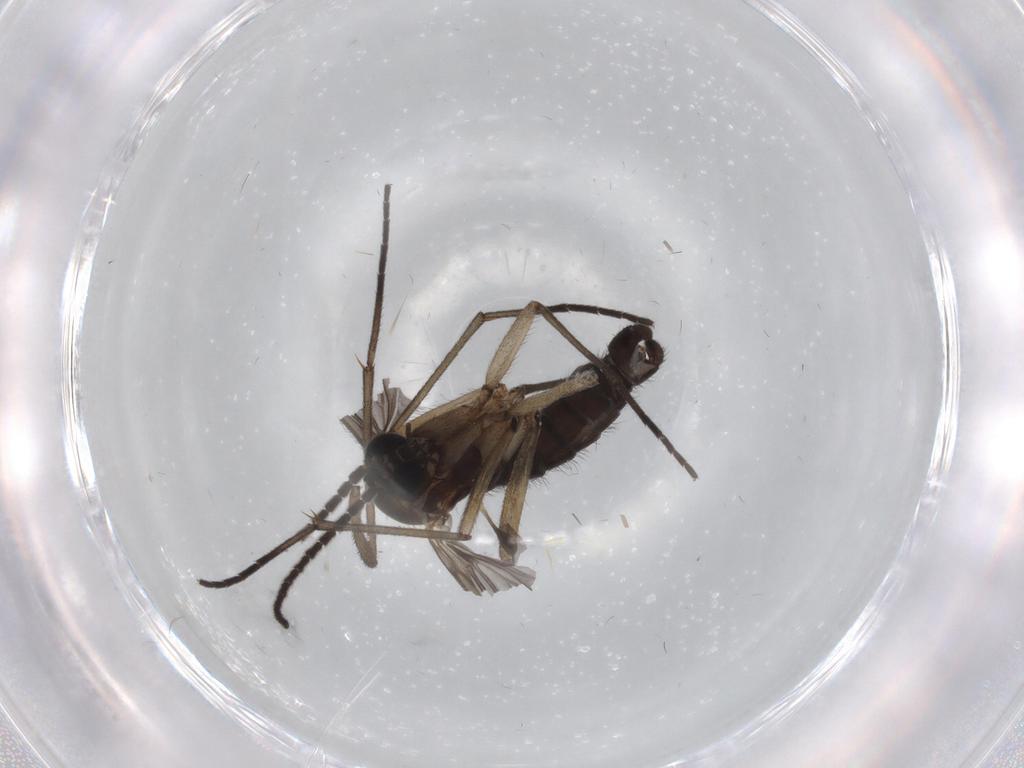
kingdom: Animalia
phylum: Arthropoda
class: Insecta
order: Diptera
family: Sciaridae
